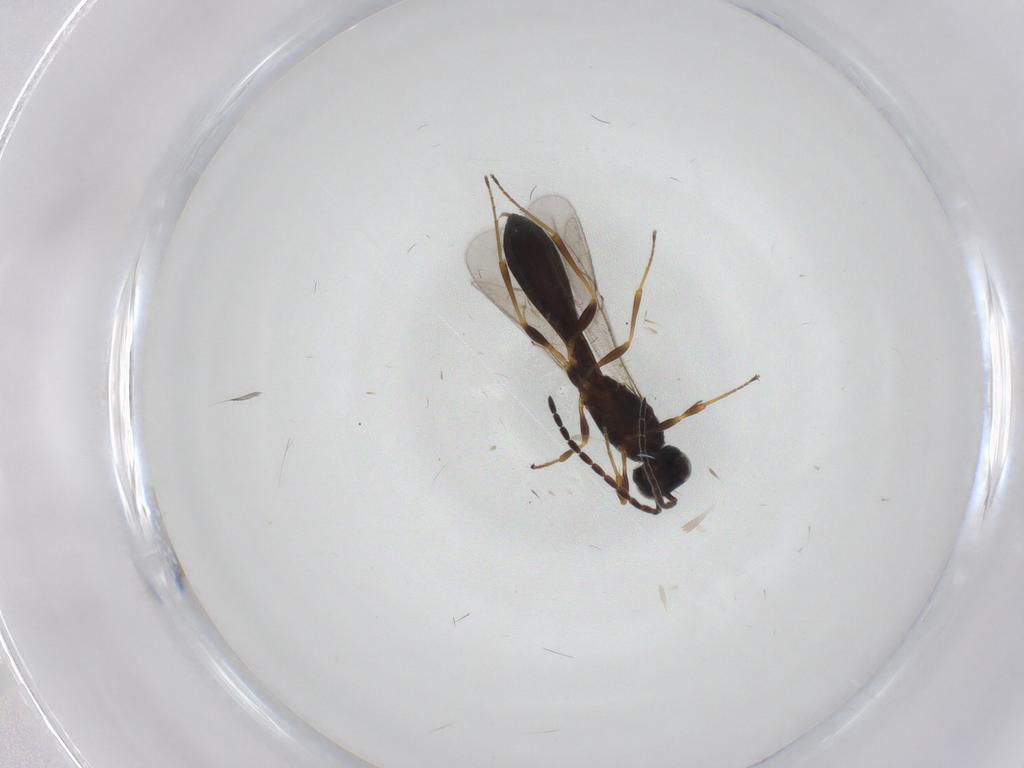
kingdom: Animalia
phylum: Arthropoda
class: Insecta
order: Hymenoptera
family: Scelionidae
